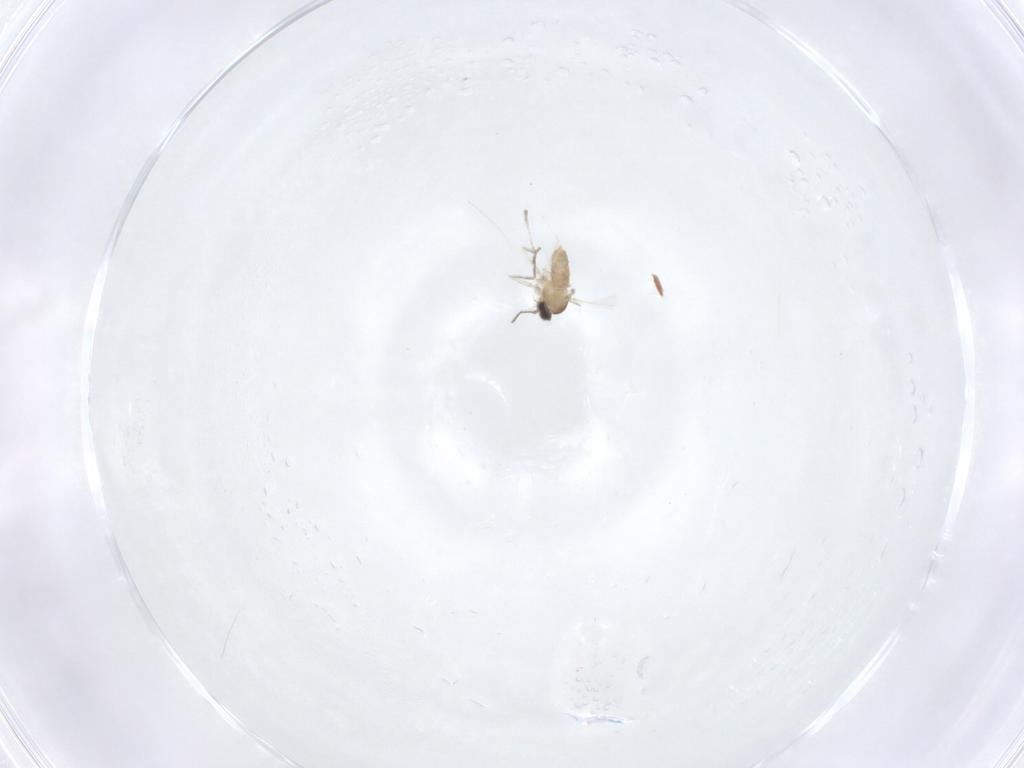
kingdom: Animalia
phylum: Arthropoda
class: Insecta
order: Diptera
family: Cecidomyiidae
